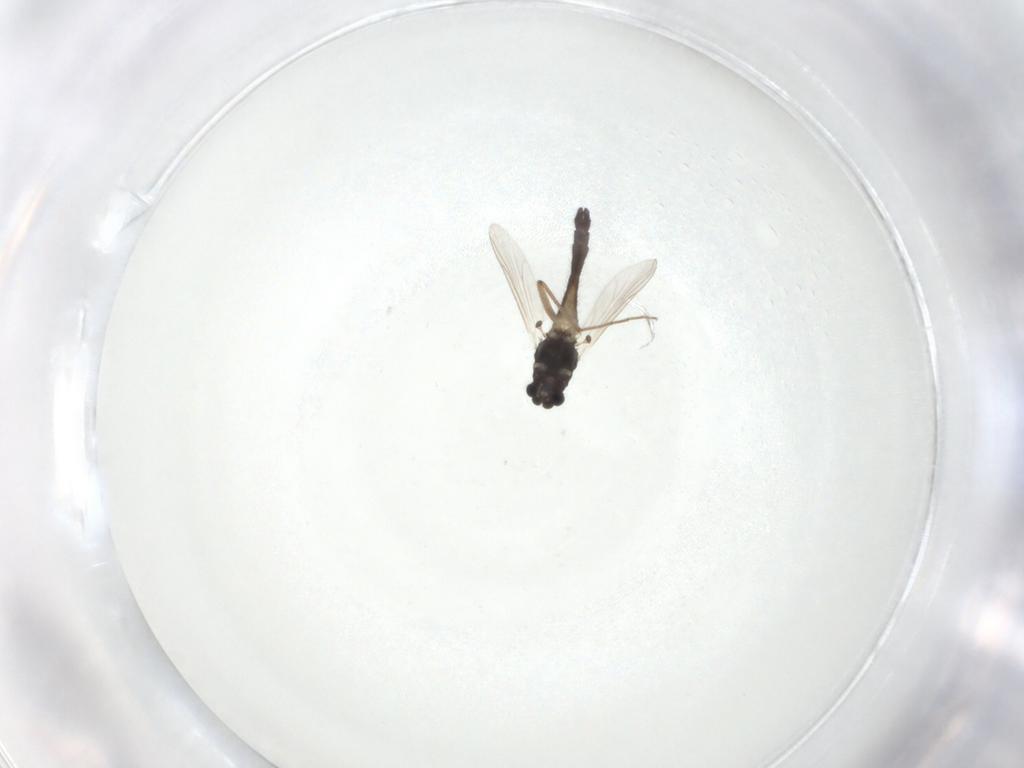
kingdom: Animalia
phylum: Arthropoda
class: Insecta
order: Diptera
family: Chironomidae
